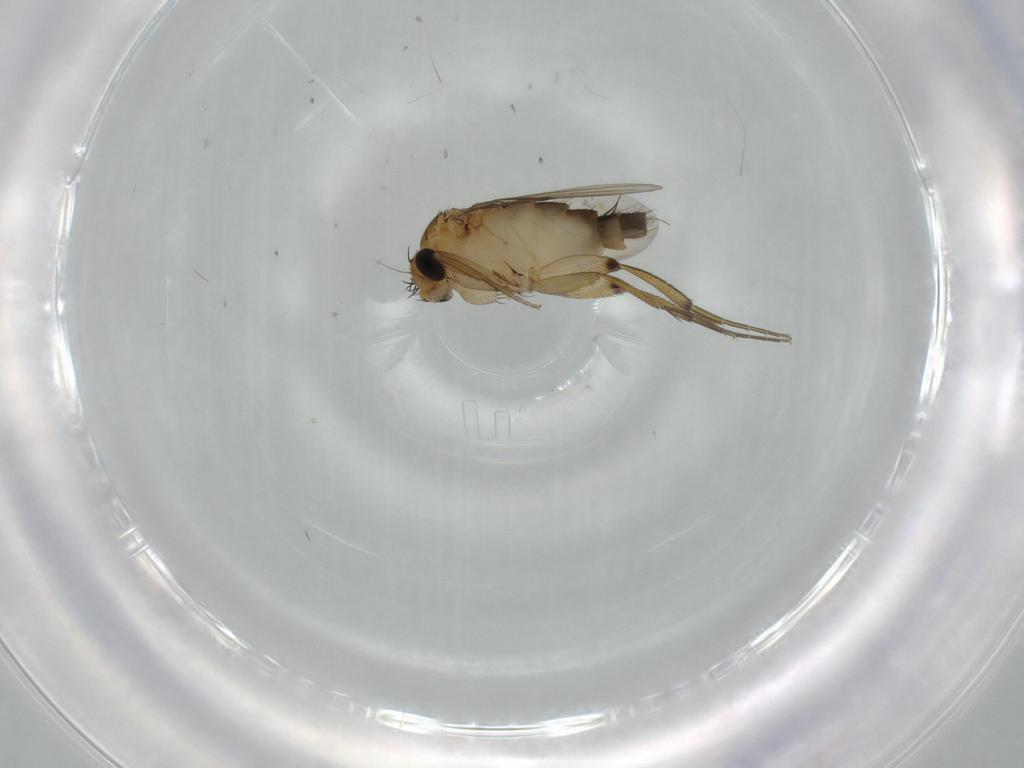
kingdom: Animalia
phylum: Arthropoda
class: Insecta
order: Diptera
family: Phoridae
